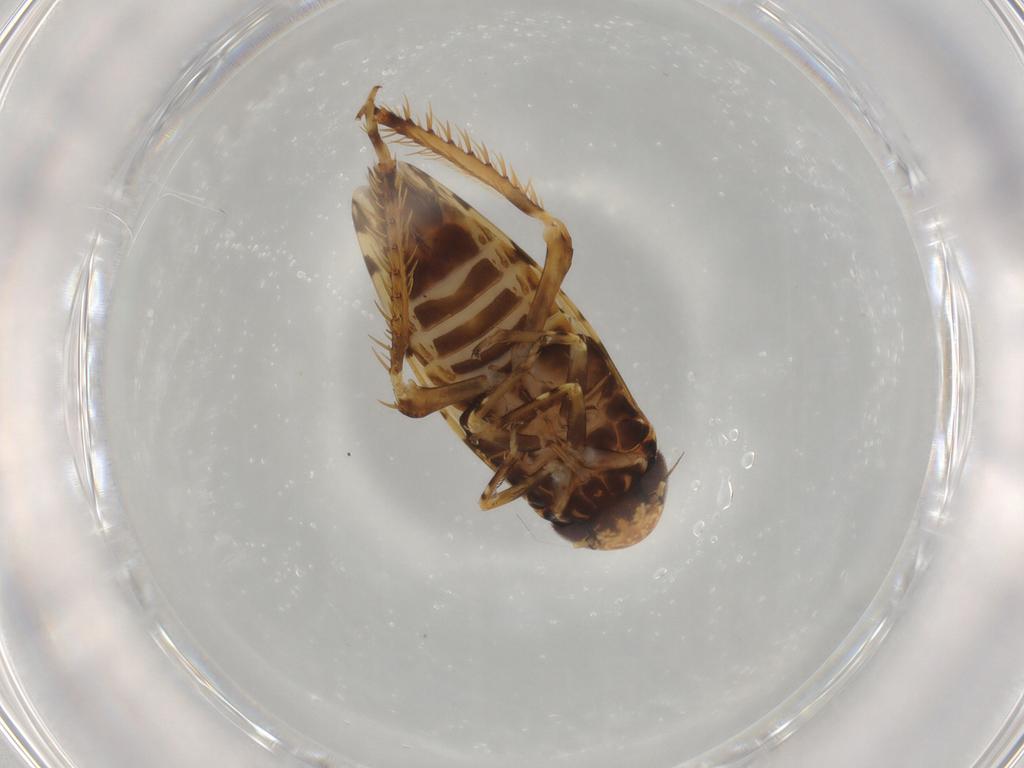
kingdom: Animalia
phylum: Arthropoda
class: Insecta
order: Hemiptera
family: Cicadellidae
